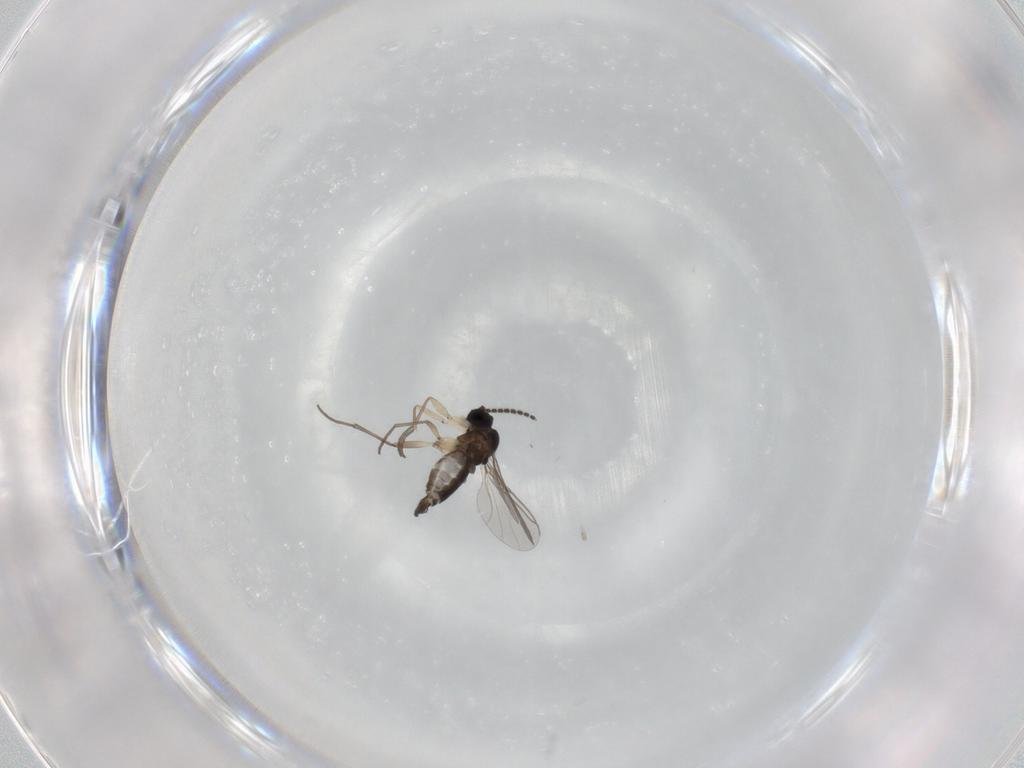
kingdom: Animalia
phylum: Arthropoda
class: Insecta
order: Diptera
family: Sciaridae
